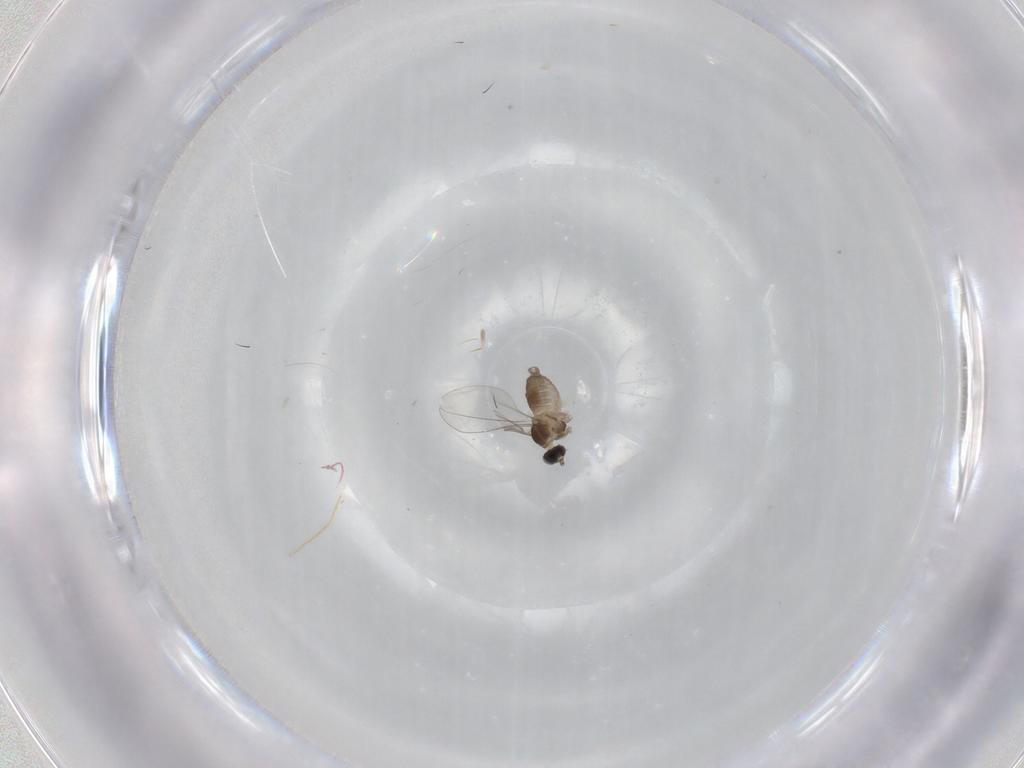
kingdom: Animalia
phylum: Arthropoda
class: Insecta
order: Diptera
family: Cecidomyiidae
